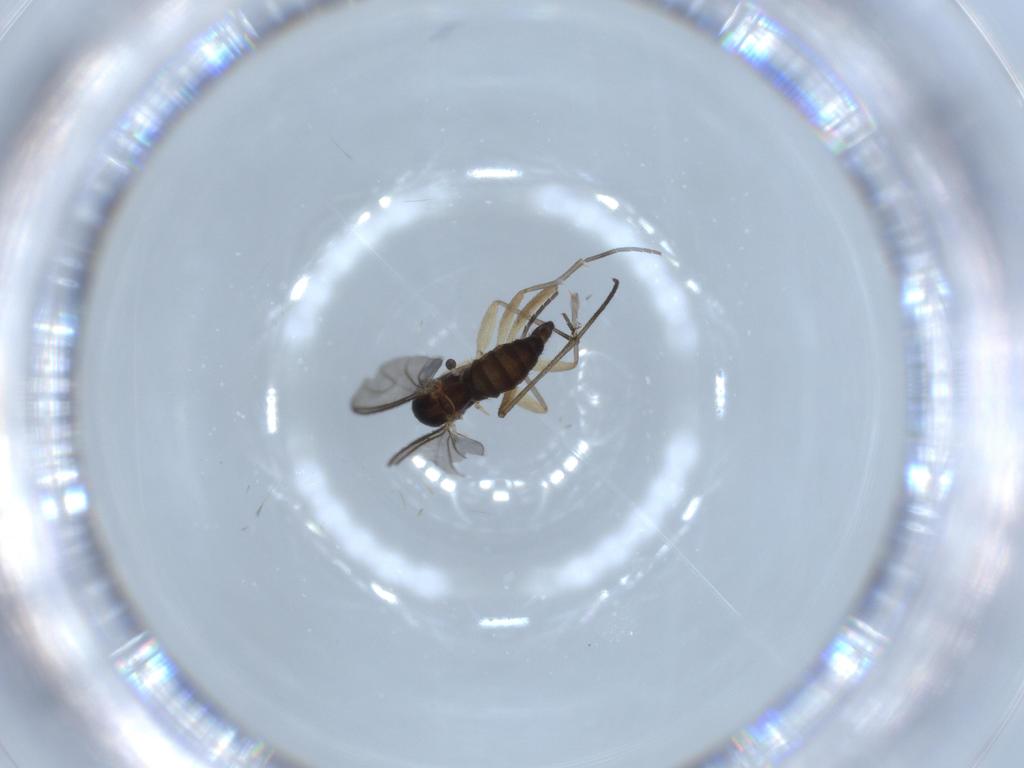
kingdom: Animalia
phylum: Arthropoda
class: Insecta
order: Diptera
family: Sciaridae
